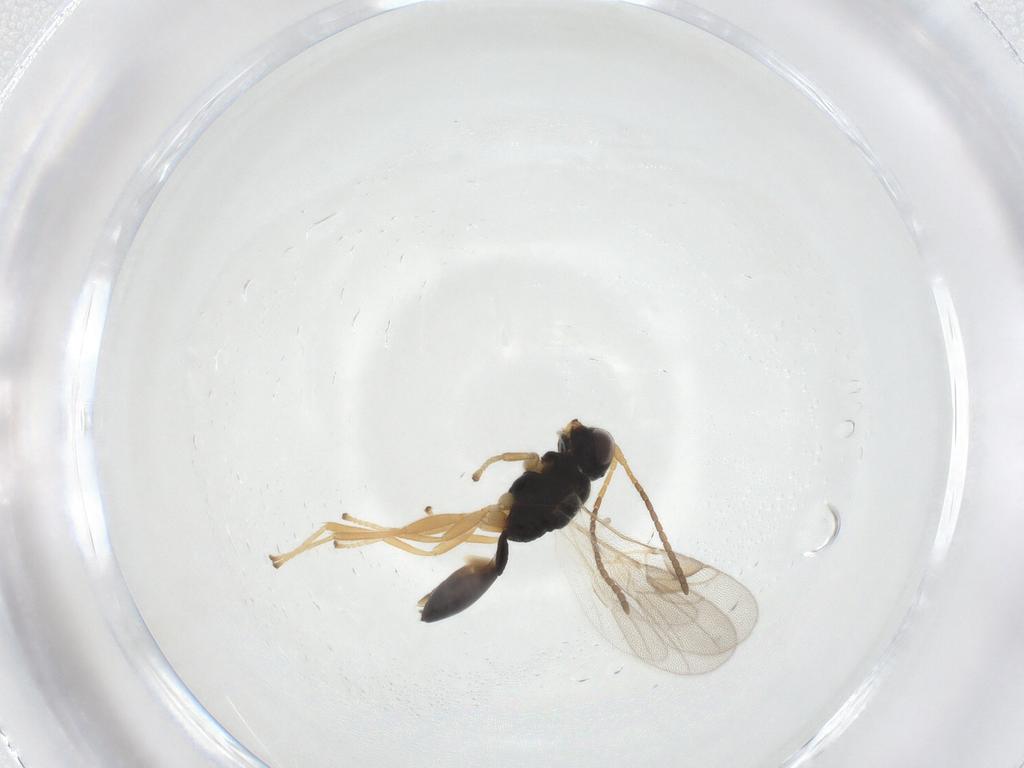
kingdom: Animalia
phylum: Arthropoda
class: Insecta
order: Hymenoptera
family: Braconidae
